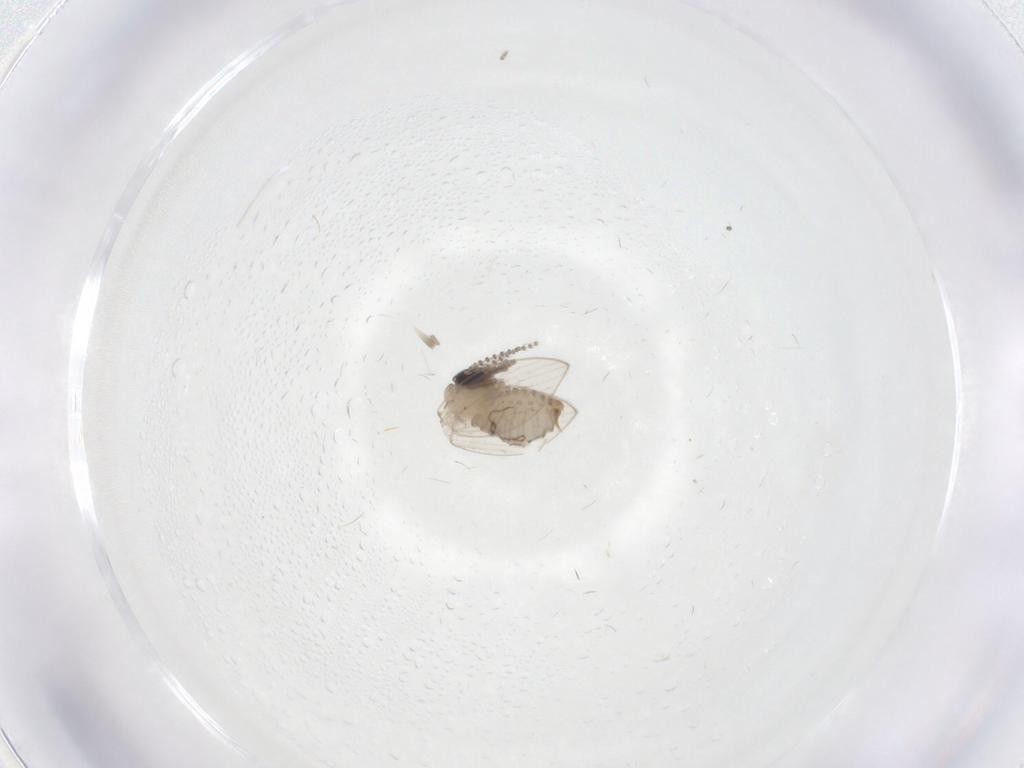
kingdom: Animalia
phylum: Arthropoda
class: Insecta
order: Diptera
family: Psychodidae
